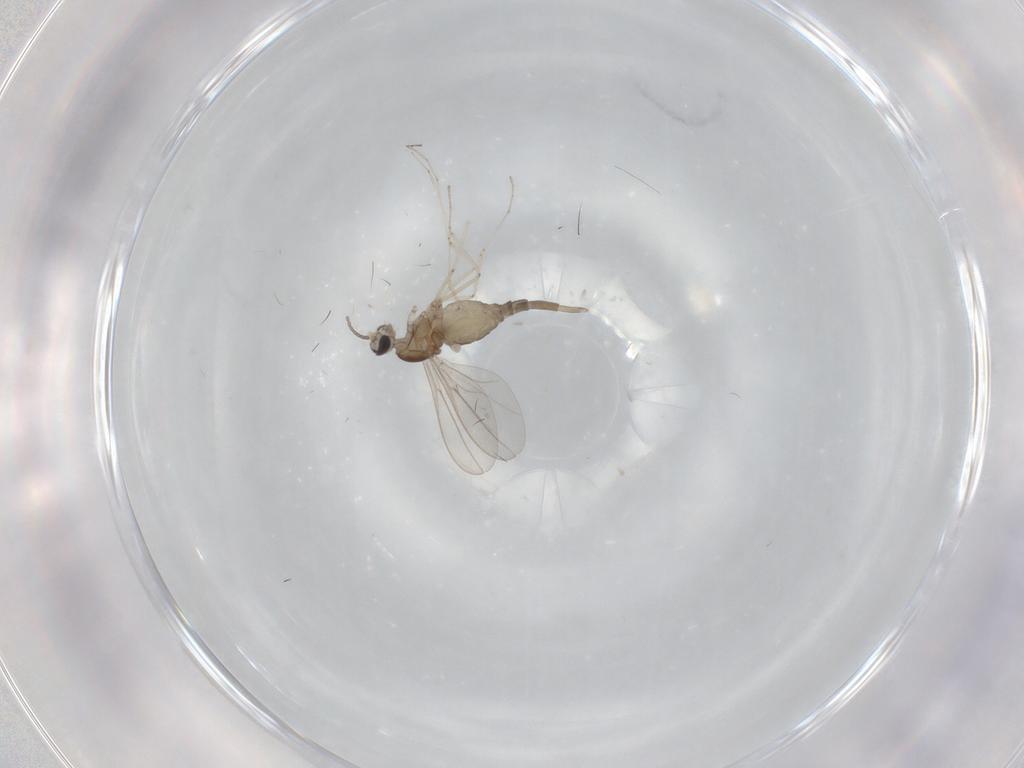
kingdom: Animalia
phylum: Arthropoda
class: Insecta
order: Diptera
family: Cecidomyiidae
